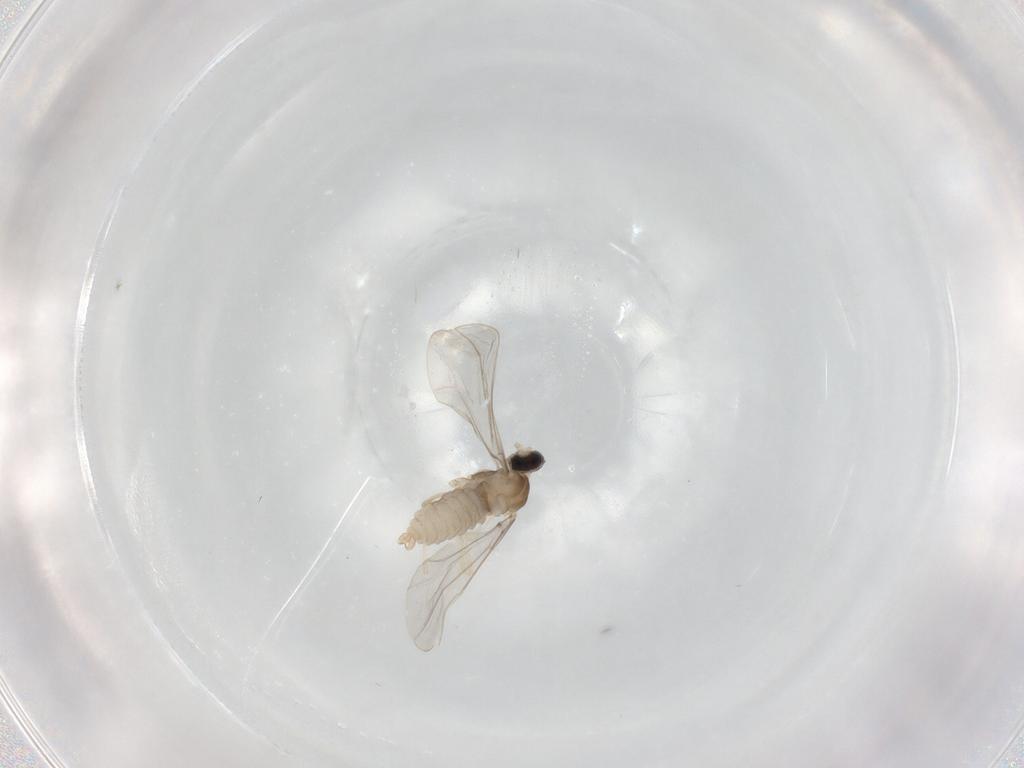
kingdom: Animalia
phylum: Arthropoda
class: Insecta
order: Diptera
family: Cecidomyiidae
